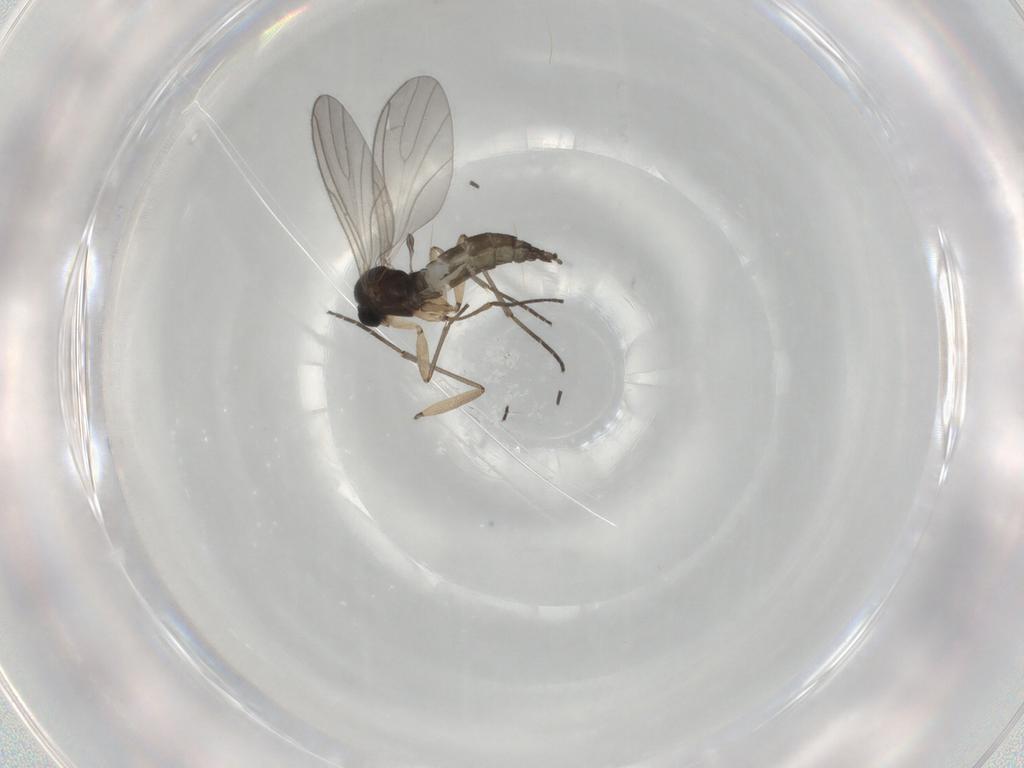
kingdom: Animalia
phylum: Arthropoda
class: Insecta
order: Diptera
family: Sciaridae
